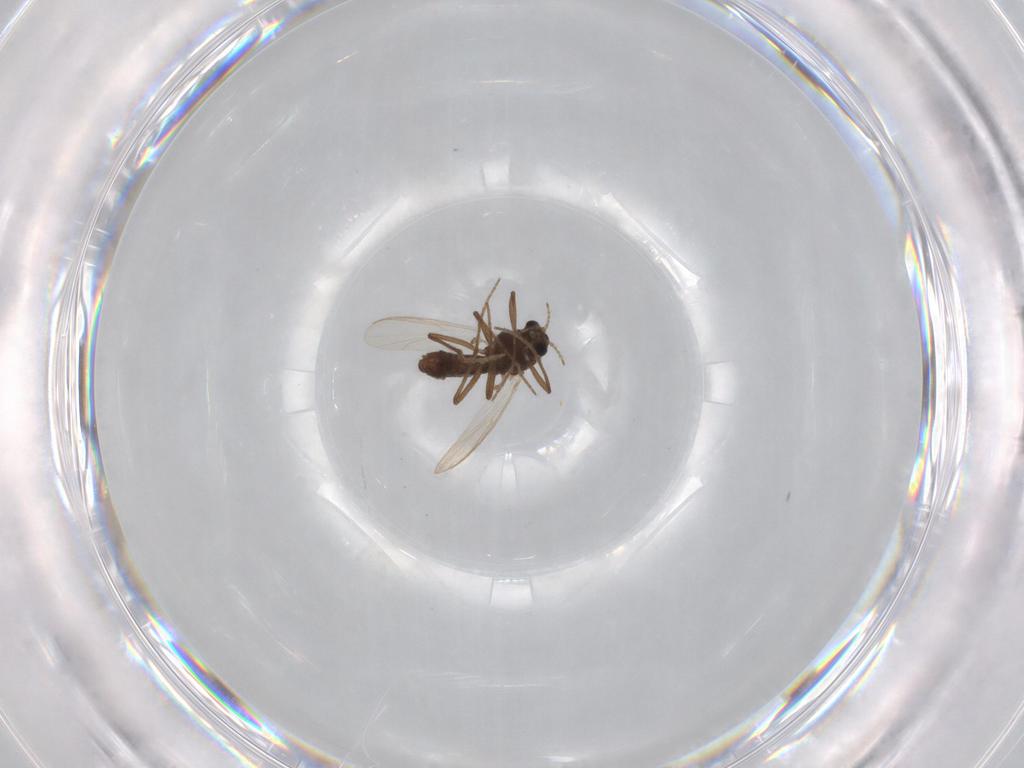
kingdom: Animalia
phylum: Arthropoda
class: Insecta
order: Diptera
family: Chironomidae
